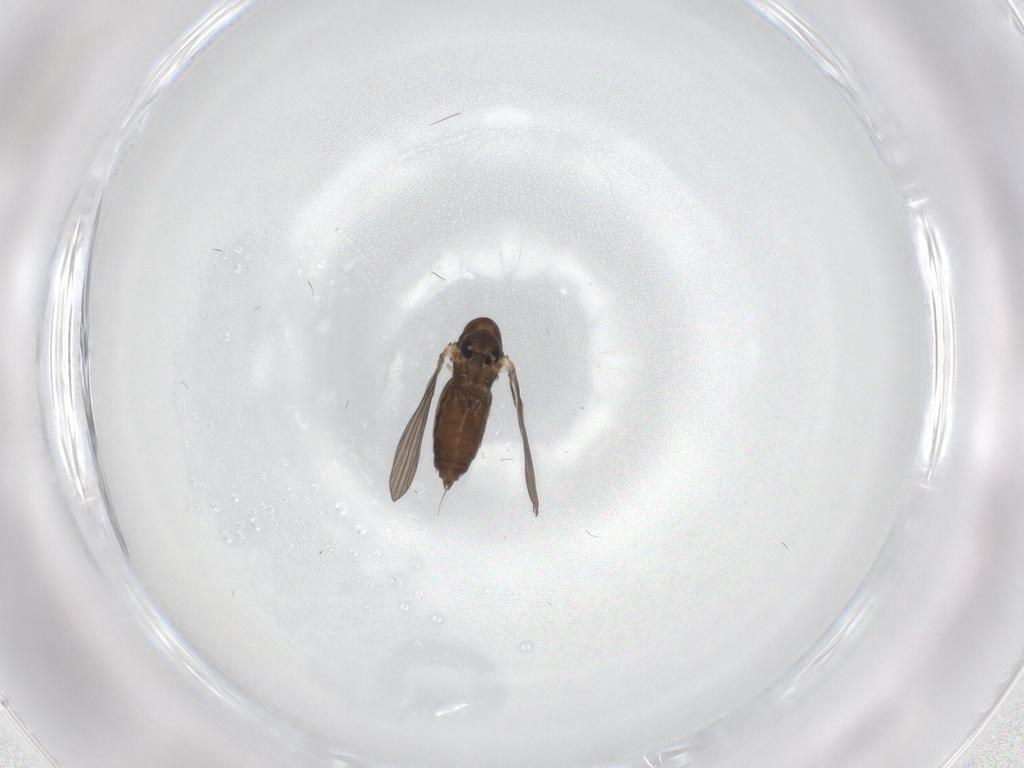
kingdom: Animalia
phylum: Arthropoda
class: Insecta
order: Diptera
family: Psychodidae
